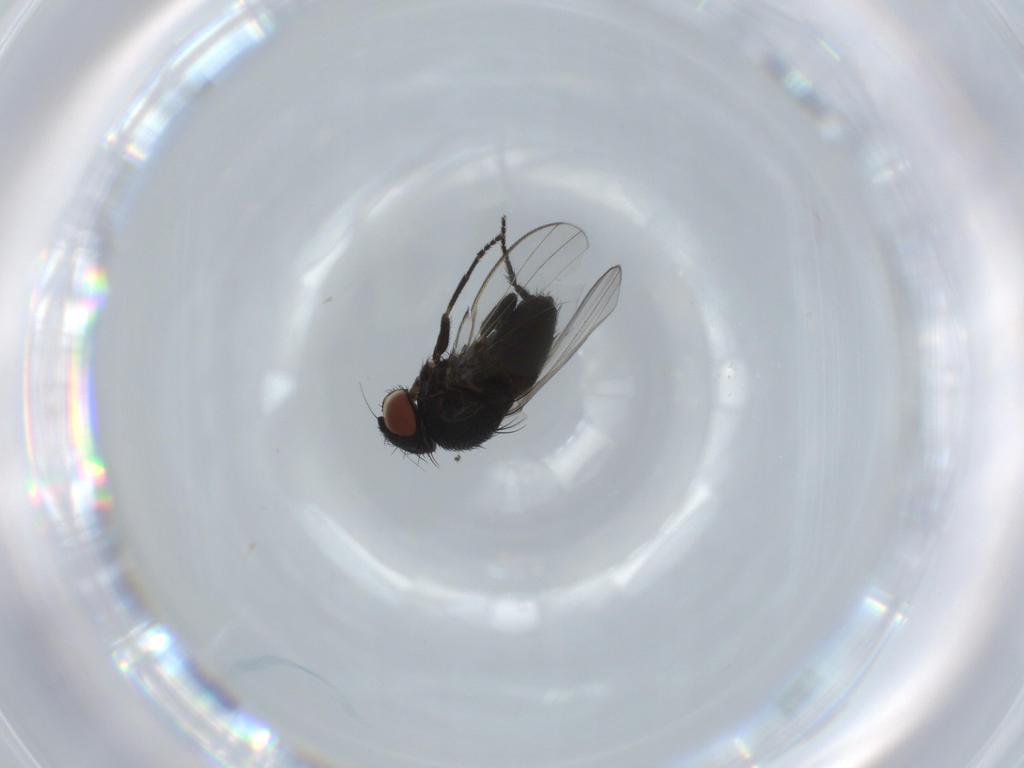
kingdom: Animalia
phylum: Arthropoda
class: Insecta
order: Diptera
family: Milichiidae
